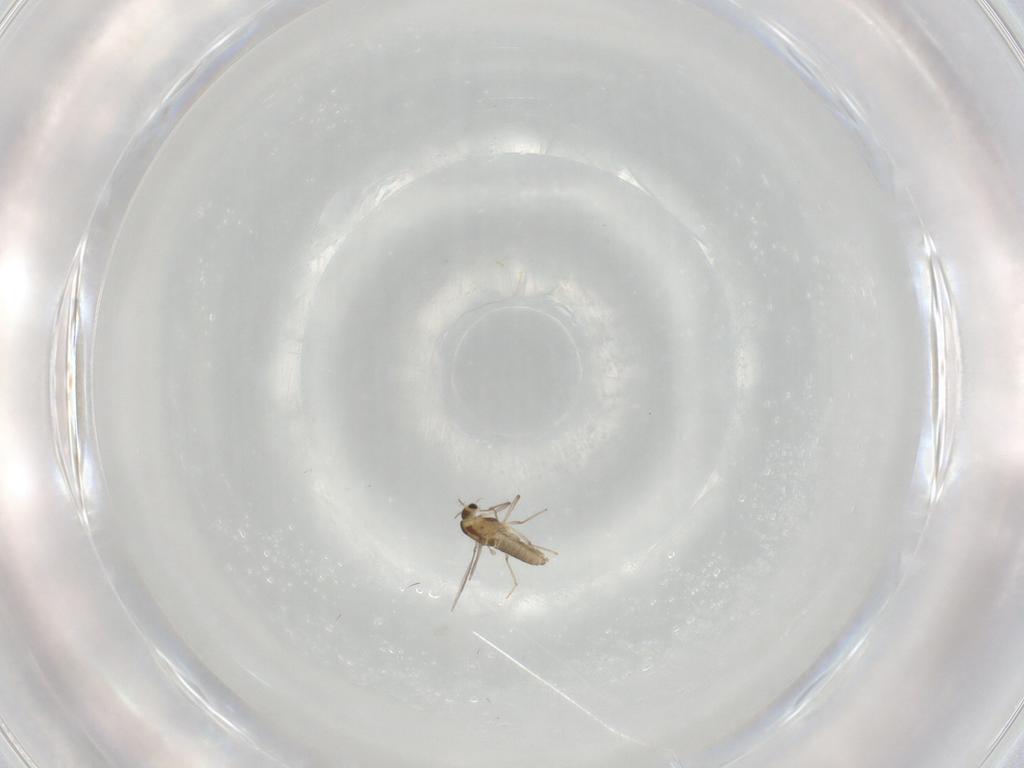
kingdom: Animalia
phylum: Arthropoda
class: Insecta
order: Diptera
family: Chironomidae
